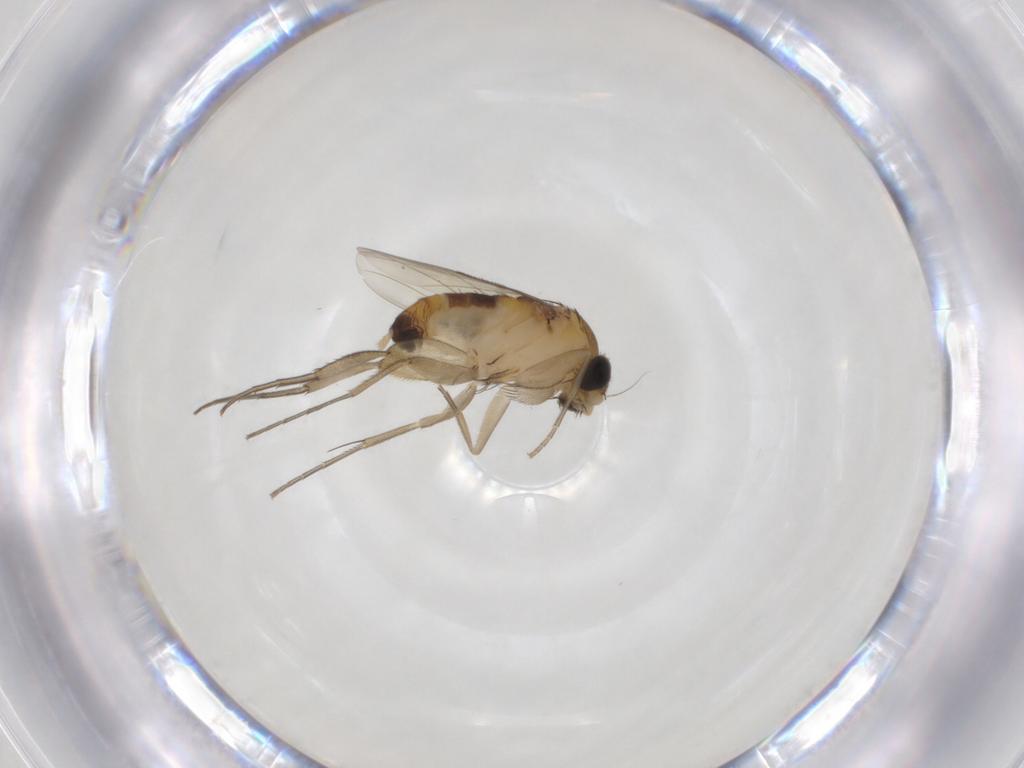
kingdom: Animalia
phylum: Arthropoda
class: Insecta
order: Diptera
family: Phoridae
